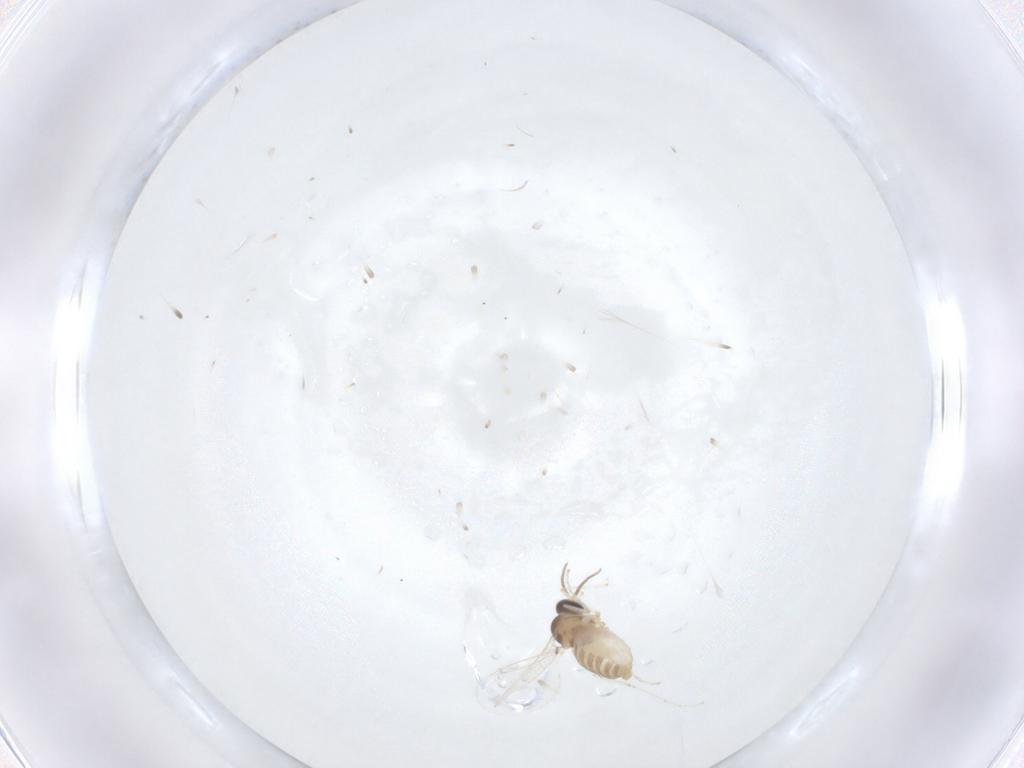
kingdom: Animalia
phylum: Arthropoda
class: Insecta
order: Diptera
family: Cecidomyiidae
